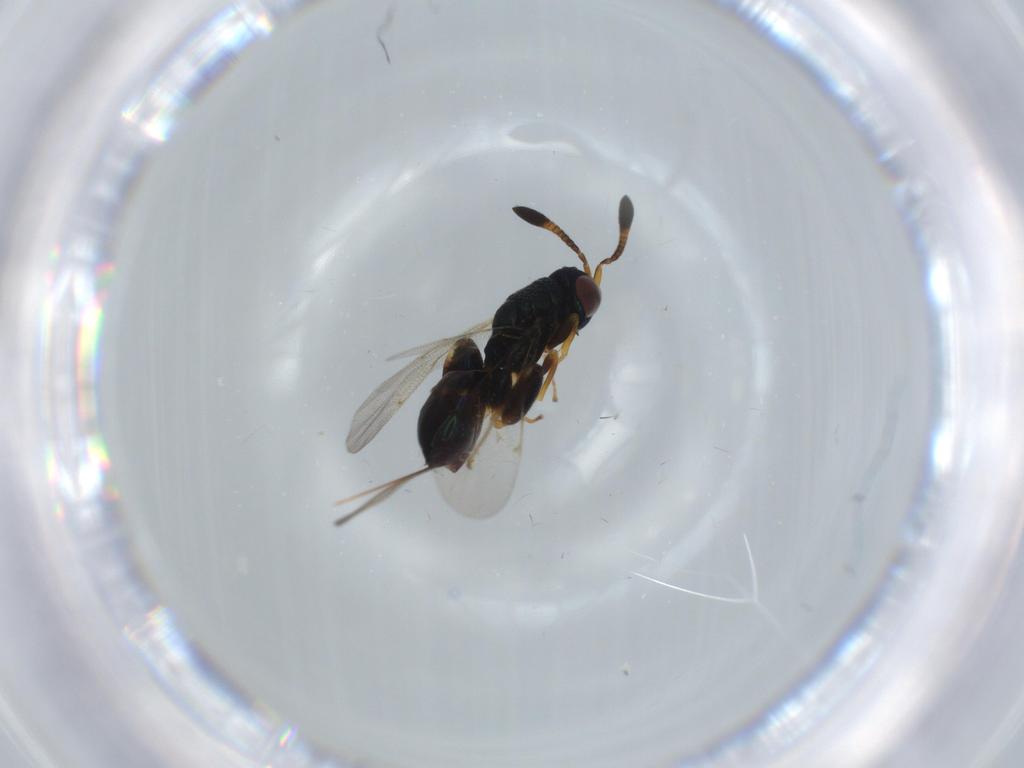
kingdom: Animalia
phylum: Arthropoda
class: Insecta
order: Hymenoptera
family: Torymidae
